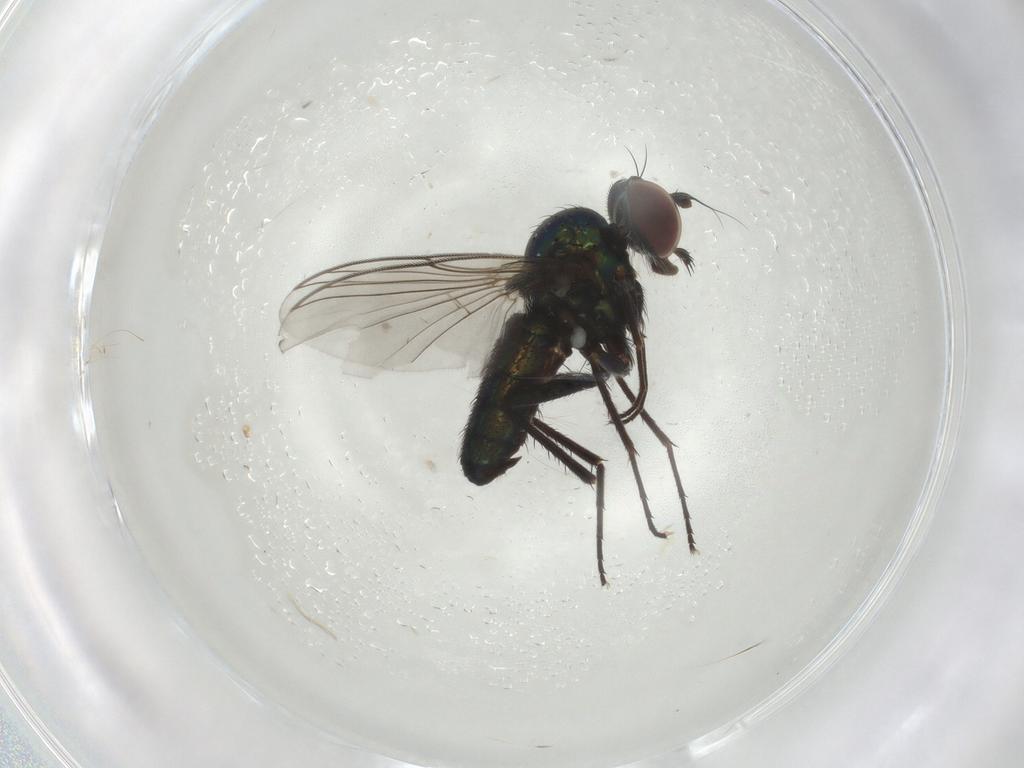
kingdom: Animalia
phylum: Arthropoda
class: Insecta
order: Diptera
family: Dolichopodidae
